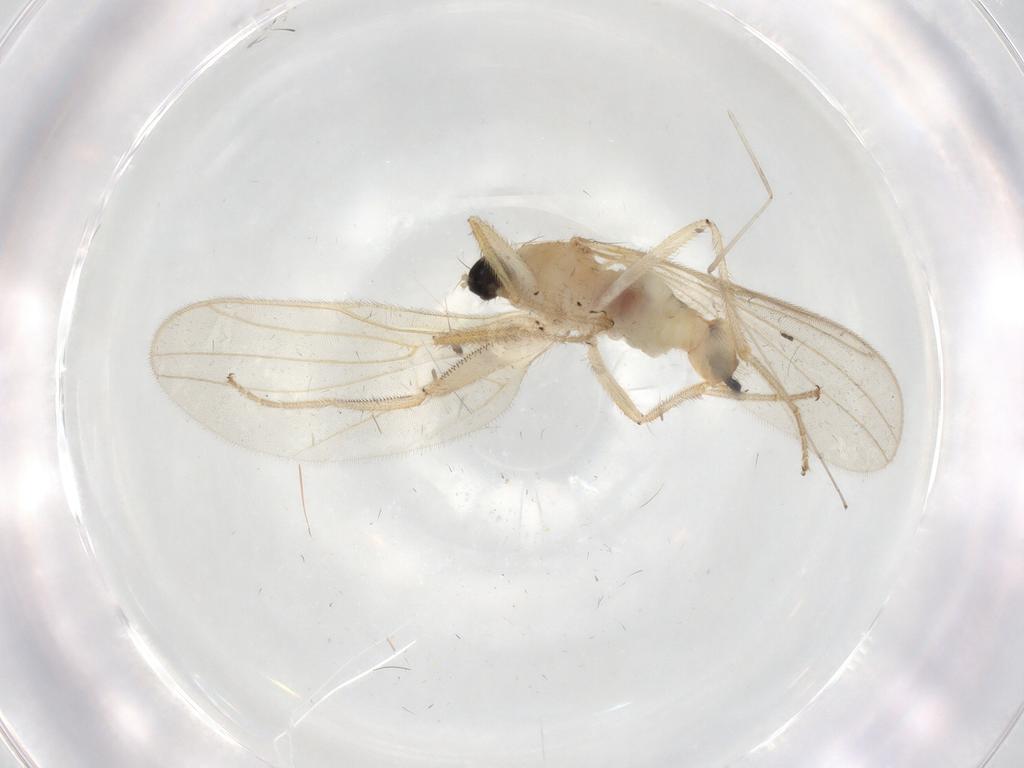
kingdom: Animalia
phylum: Arthropoda
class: Insecta
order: Diptera
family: Hybotidae
